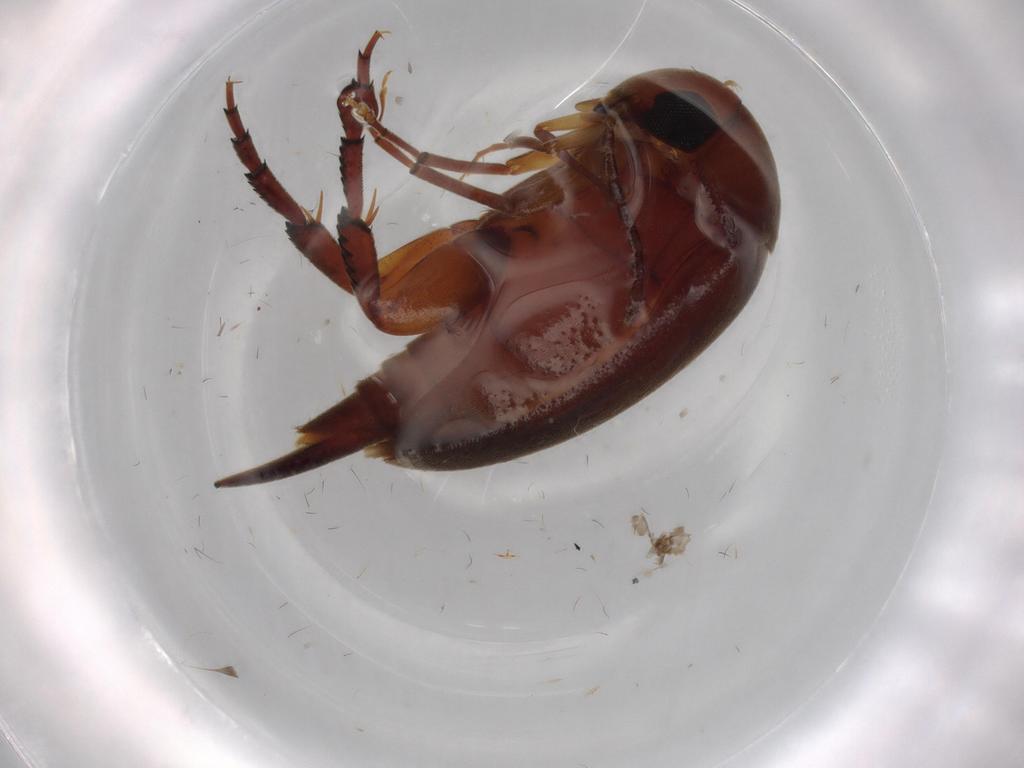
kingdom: Animalia
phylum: Arthropoda
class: Insecta
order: Coleoptera
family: Mordellidae
